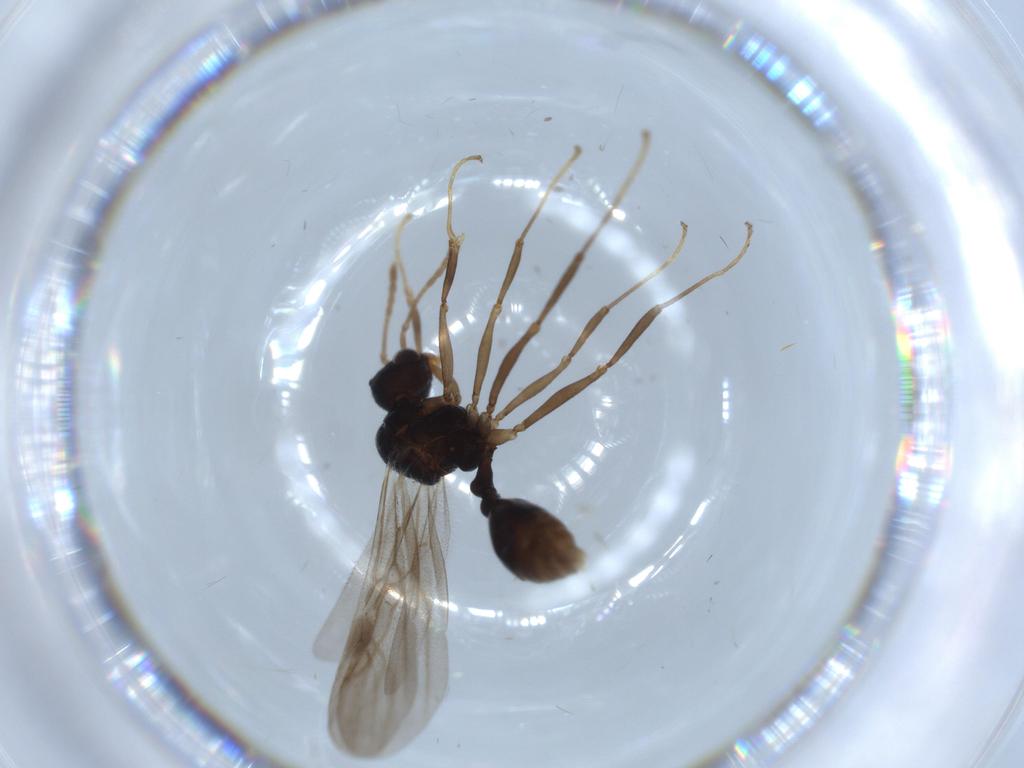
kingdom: Animalia
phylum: Arthropoda
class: Insecta
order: Hymenoptera
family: Formicidae
